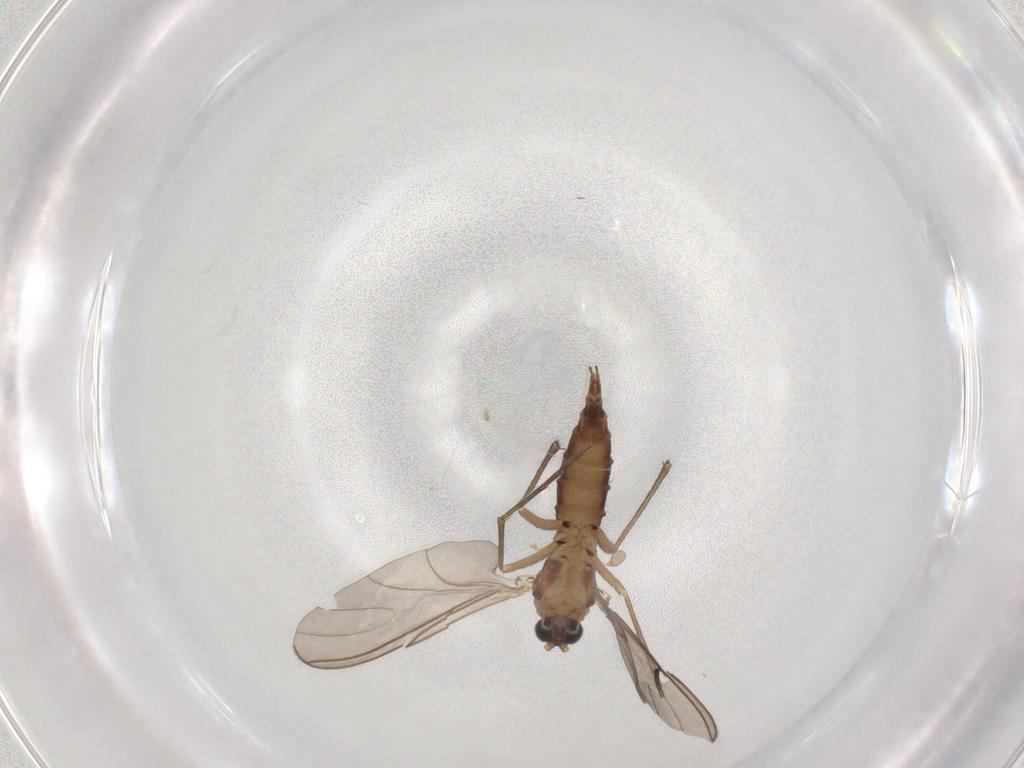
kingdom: Animalia
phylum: Arthropoda
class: Insecta
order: Diptera
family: Sciaridae
